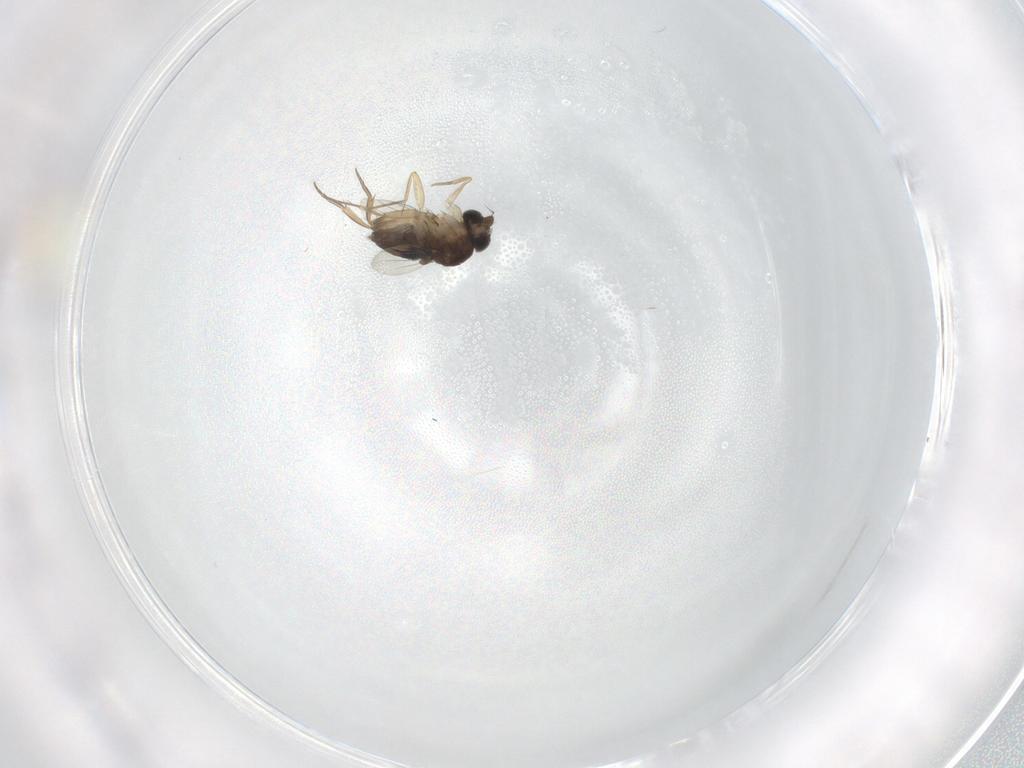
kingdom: Animalia
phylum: Arthropoda
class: Insecta
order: Diptera
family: Phoridae
